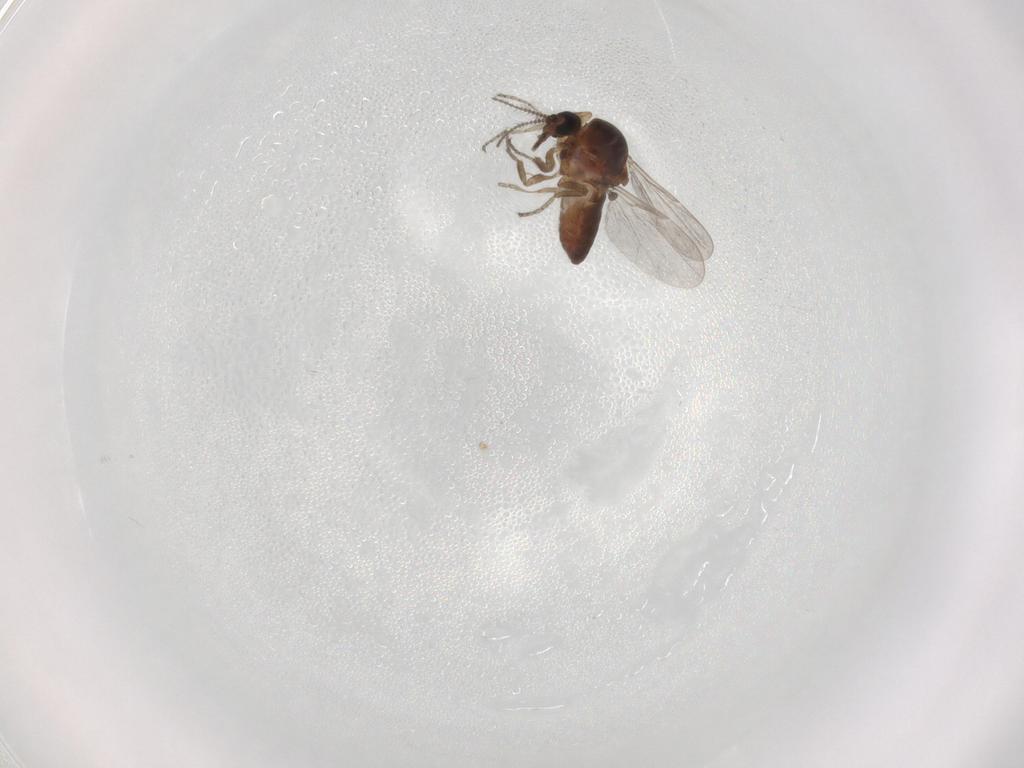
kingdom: Animalia
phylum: Arthropoda
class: Insecta
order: Diptera
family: Ceratopogonidae
